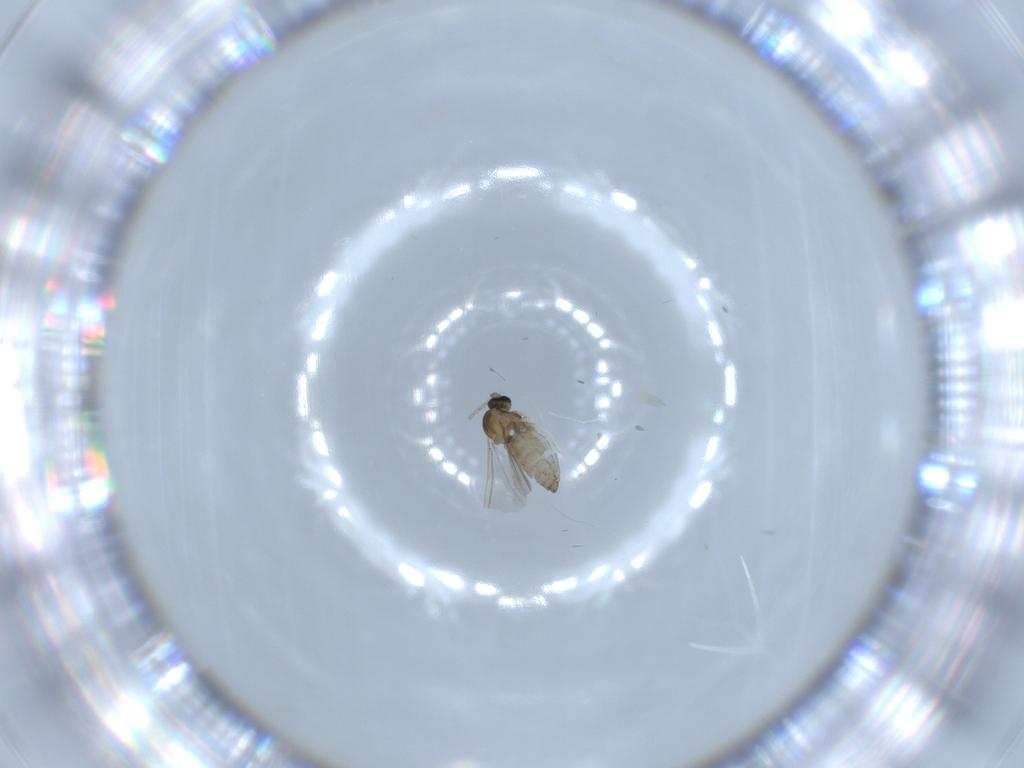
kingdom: Animalia
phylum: Arthropoda
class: Insecta
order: Diptera
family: Cecidomyiidae
